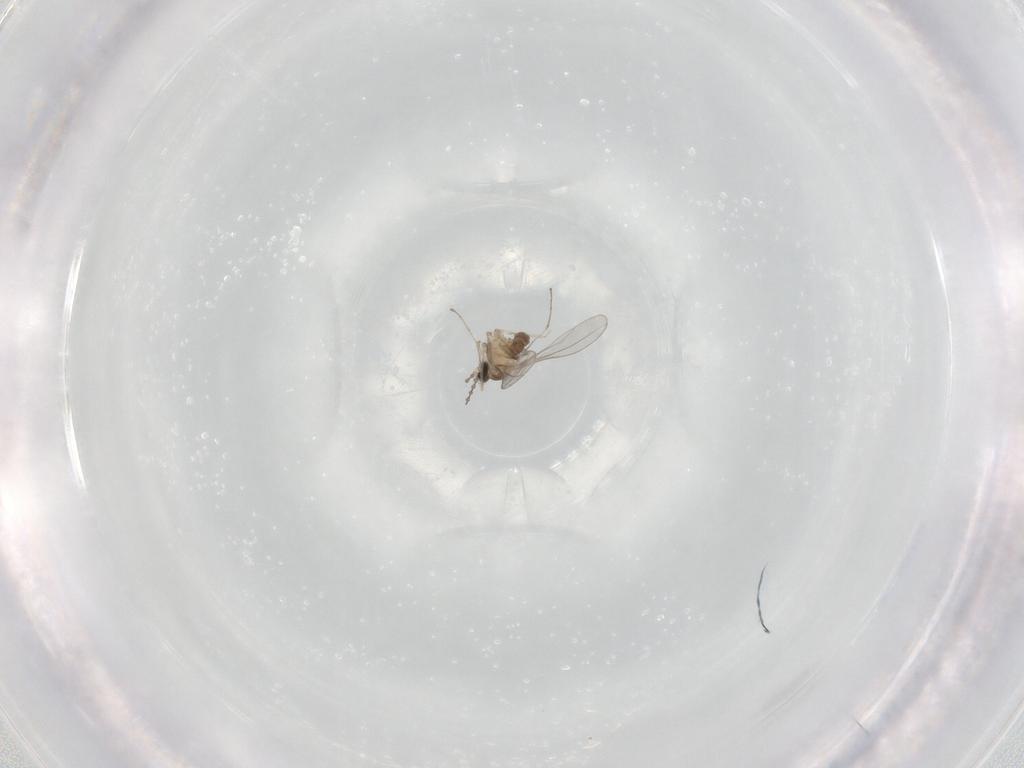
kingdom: Animalia
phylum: Arthropoda
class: Insecta
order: Diptera
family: Cecidomyiidae
